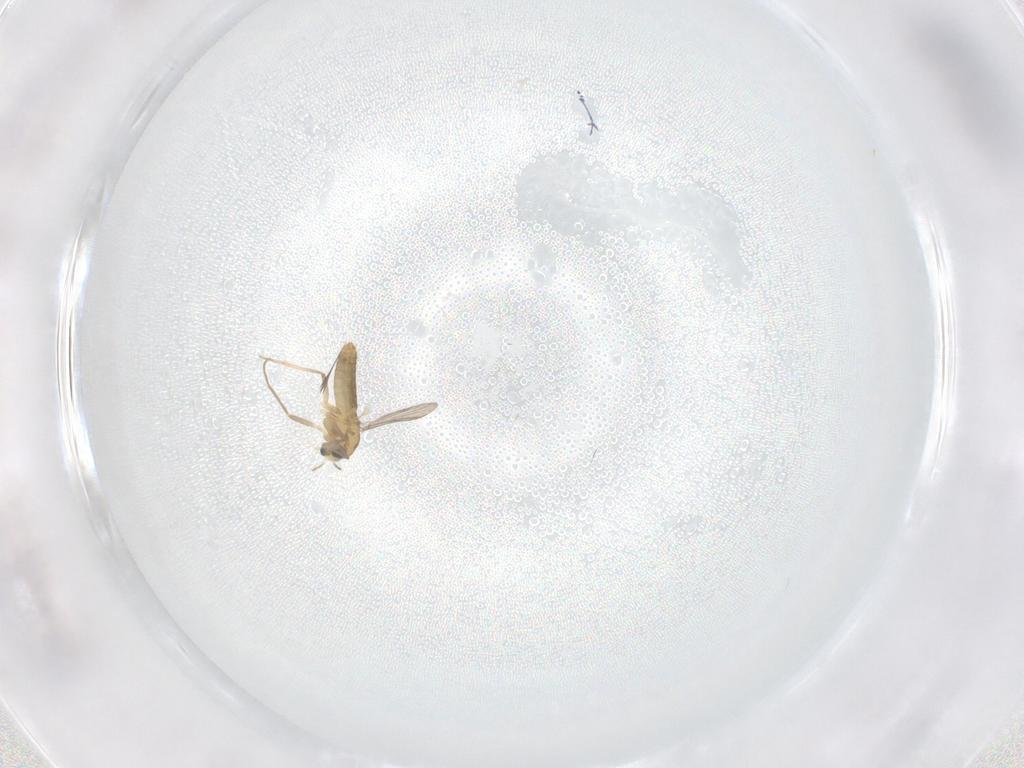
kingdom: Animalia
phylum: Arthropoda
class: Insecta
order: Diptera
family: Chironomidae
